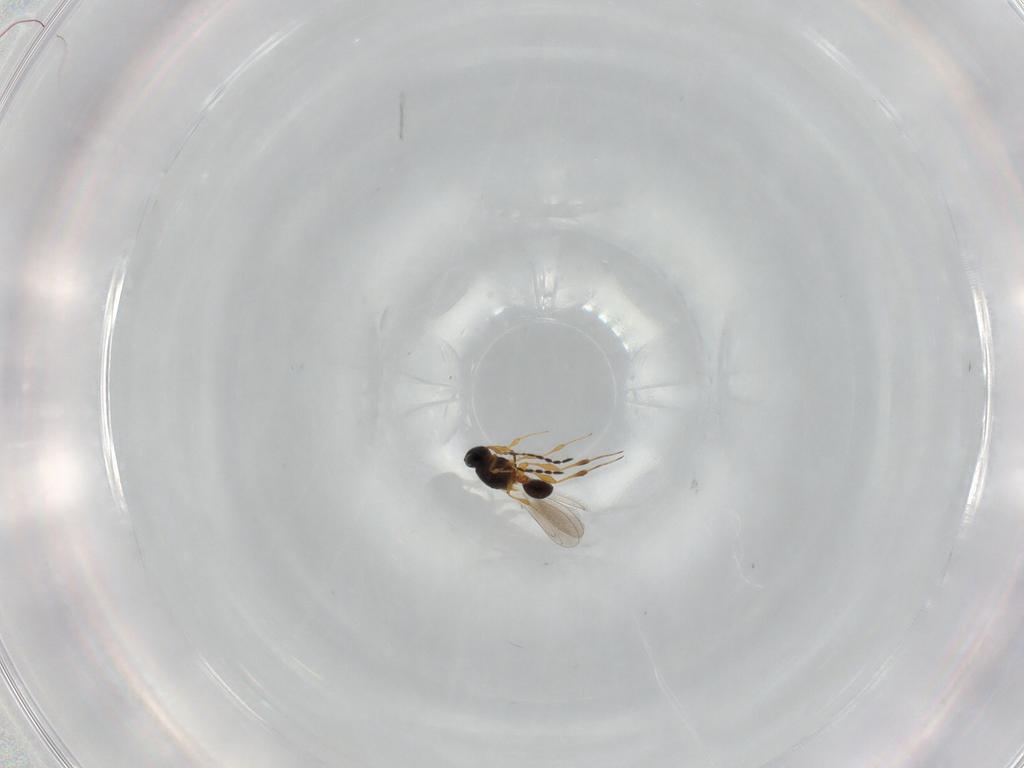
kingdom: Animalia
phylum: Arthropoda
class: Insecta
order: Hymenoptera
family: Platygastridae
